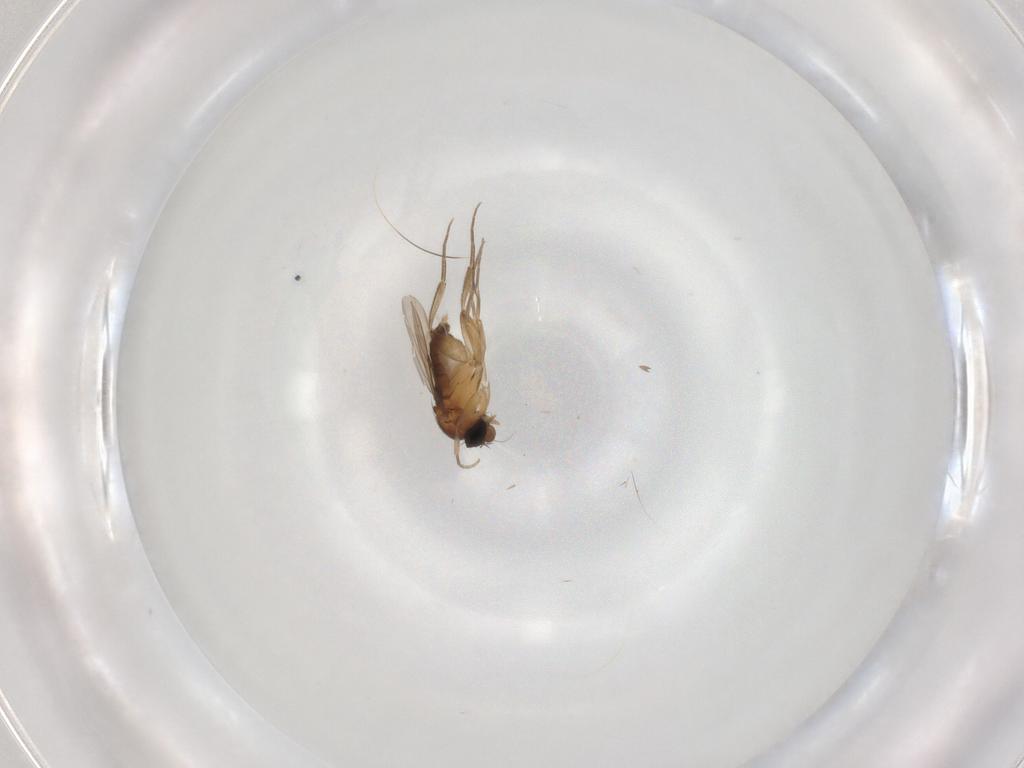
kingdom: Animalia
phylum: Arthropoda
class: Insecta
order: Diptera
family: Phoridae
